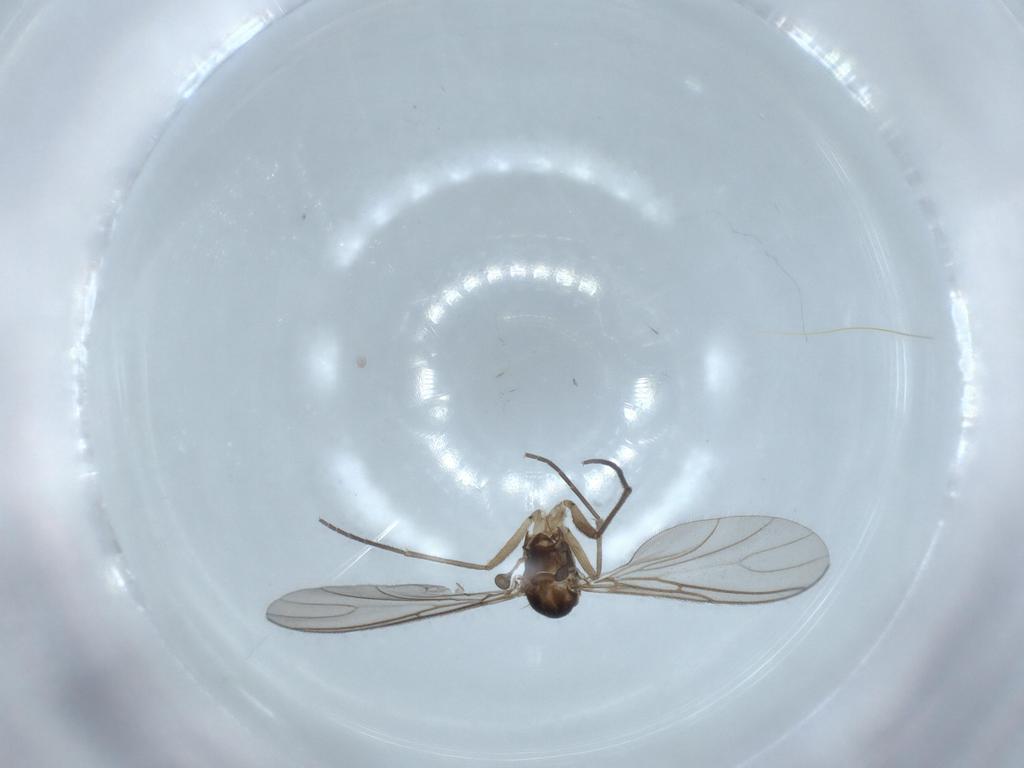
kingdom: Animalia
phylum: Arthropoda
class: Insecta
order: Diptera
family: Sciaridae
